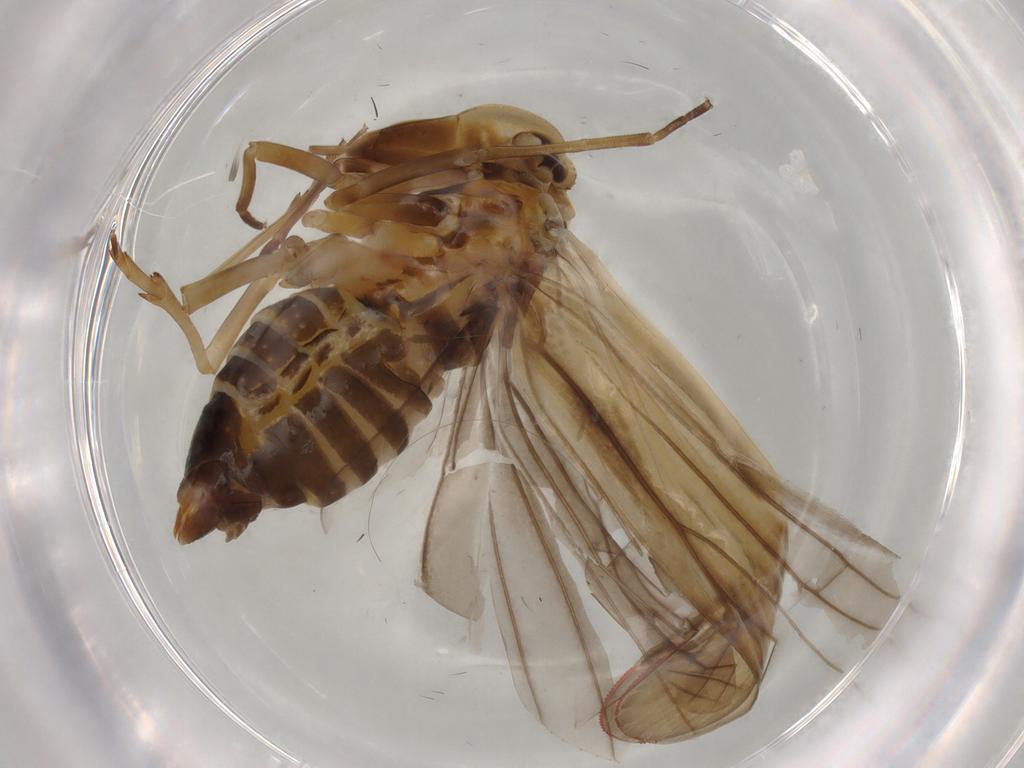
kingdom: Animalia
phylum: Arthropoda
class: Insecta
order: Hemiptera
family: Derbidae
